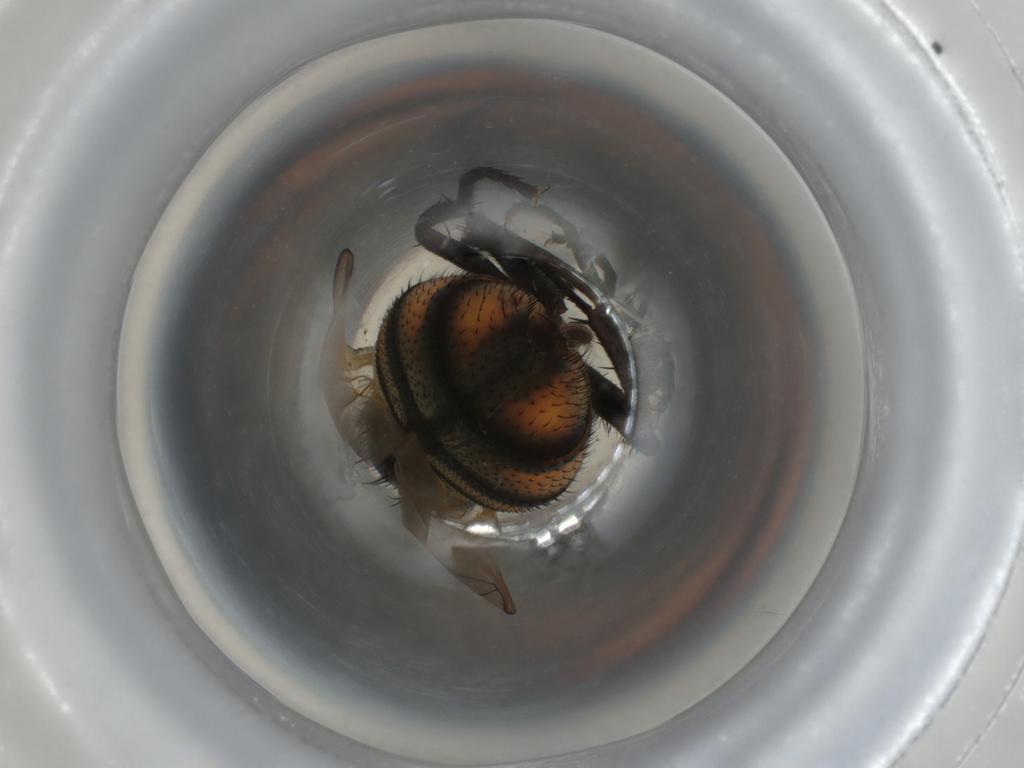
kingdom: Animalia
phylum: Arthropoda
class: Insecta
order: Diptera
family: Muscidae
